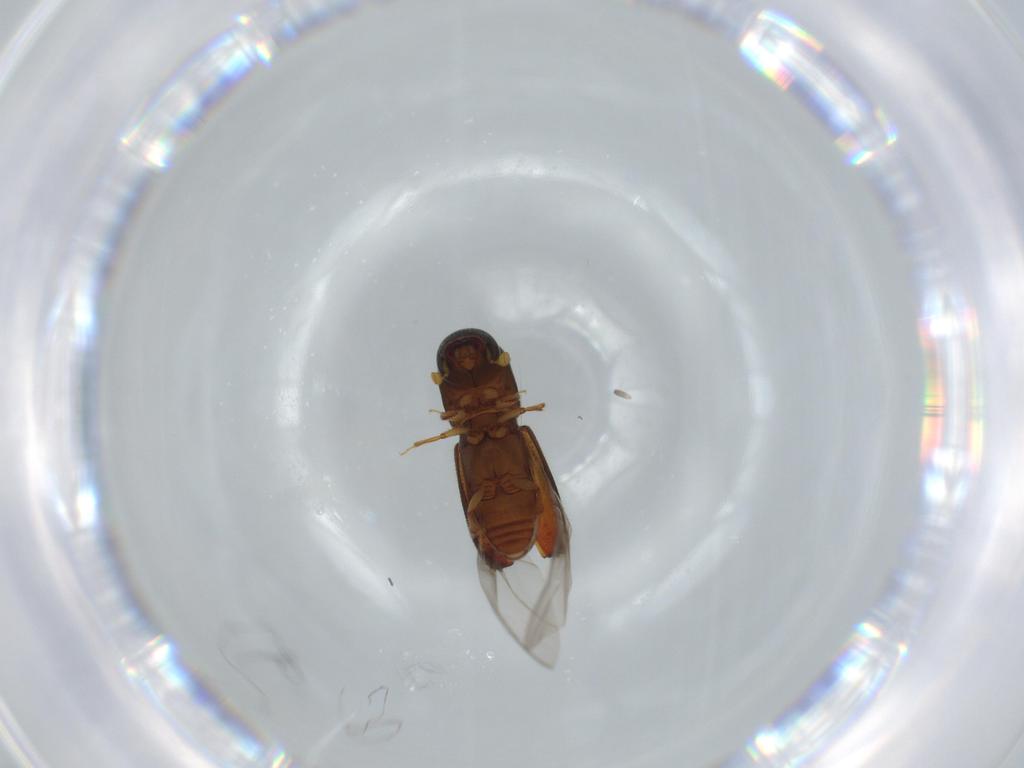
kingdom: Animalia
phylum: Arthropoda
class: Insecta
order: Coleoptera
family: Curculionidae
